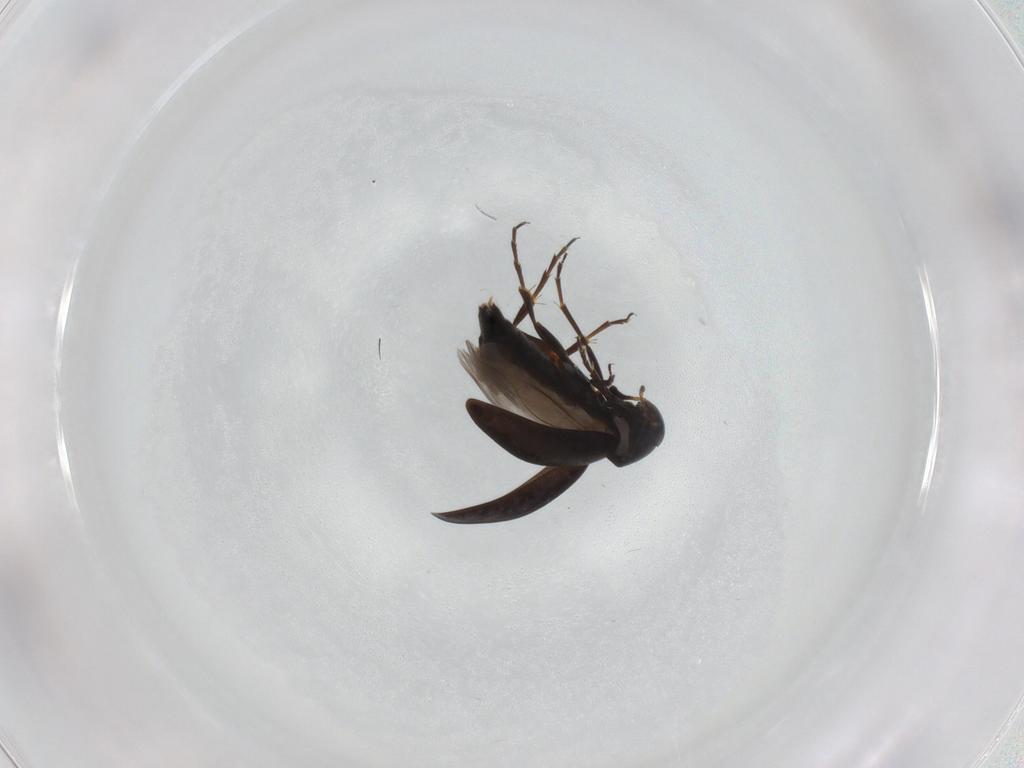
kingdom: Animalia
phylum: Arthropoda
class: Insecta
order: Coleoptera
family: Scraptiidae
